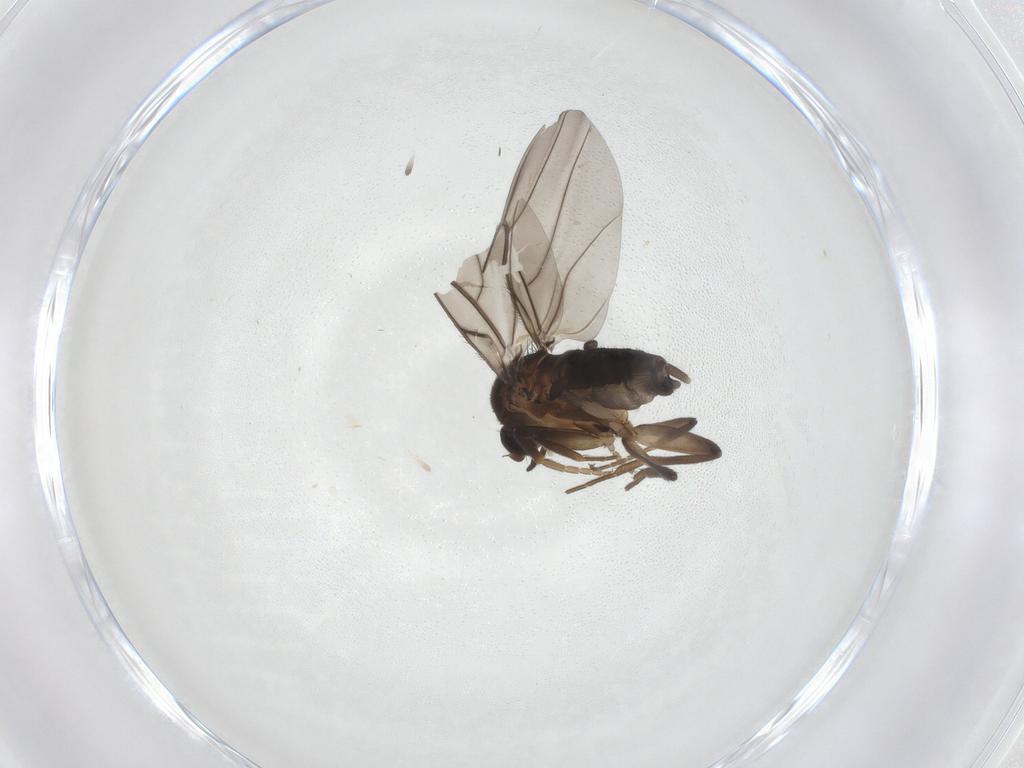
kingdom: Animalia
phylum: Arthropoda
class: Insecta
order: Diptera
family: Phoridae
